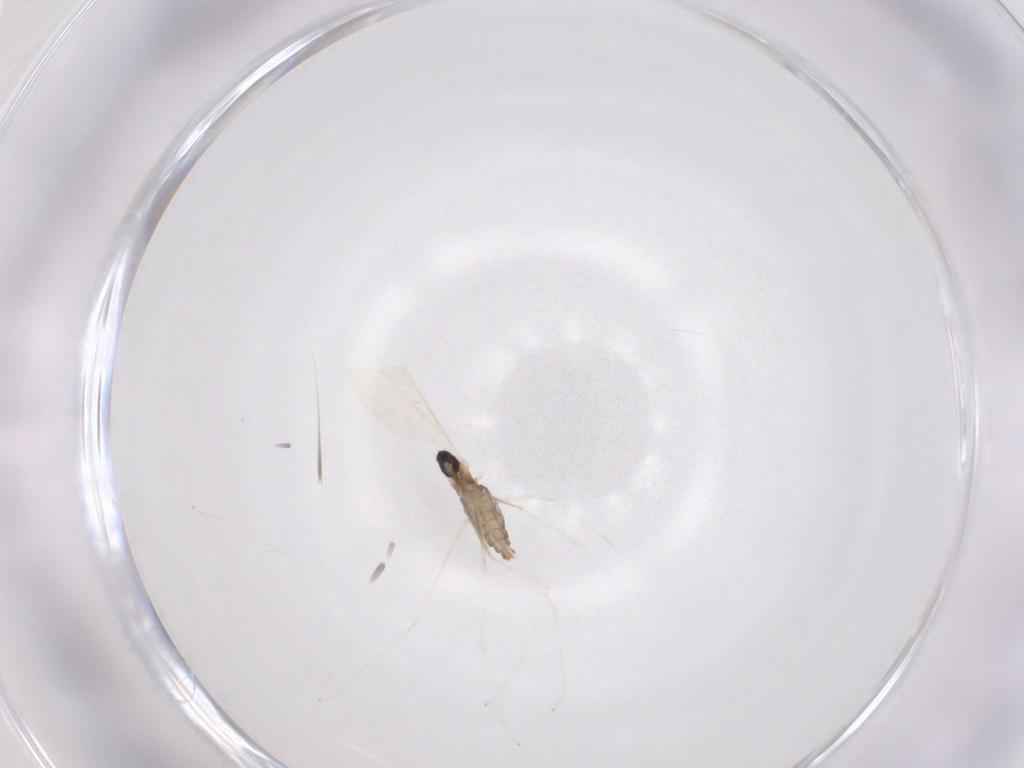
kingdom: Animalia
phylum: Arthropoda
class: Insecta
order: Diptera
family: Cecidomyiidae
